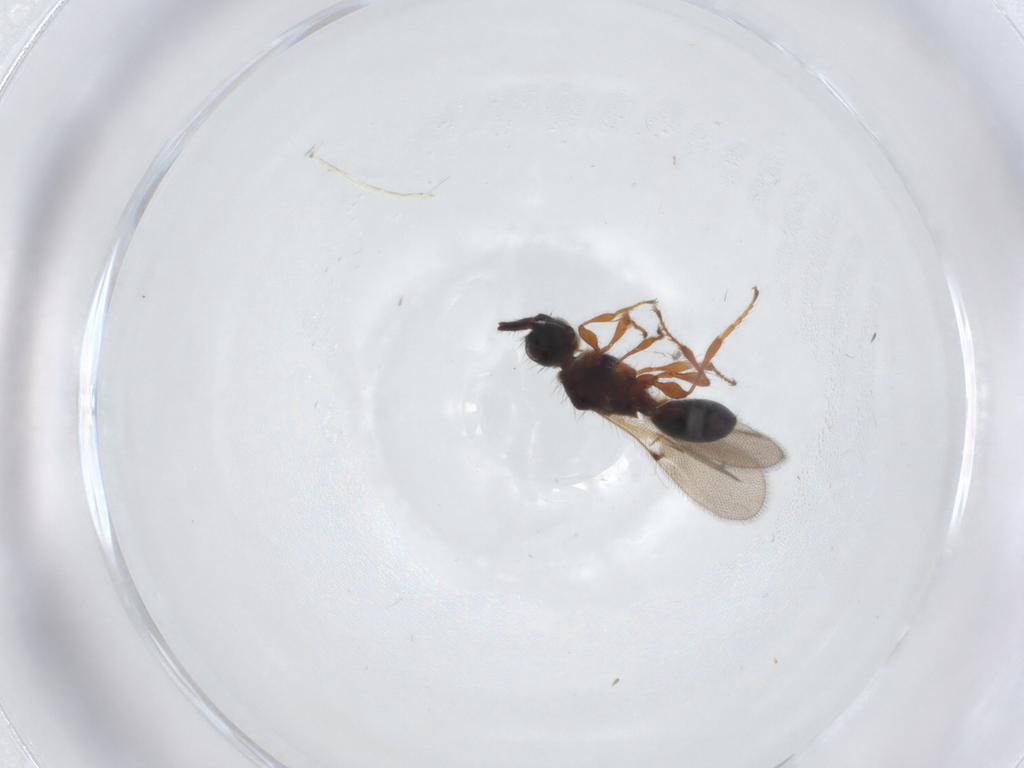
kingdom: Animalia
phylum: Arthropoda
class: Insecta
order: Hymenoptera
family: Diapriidae
